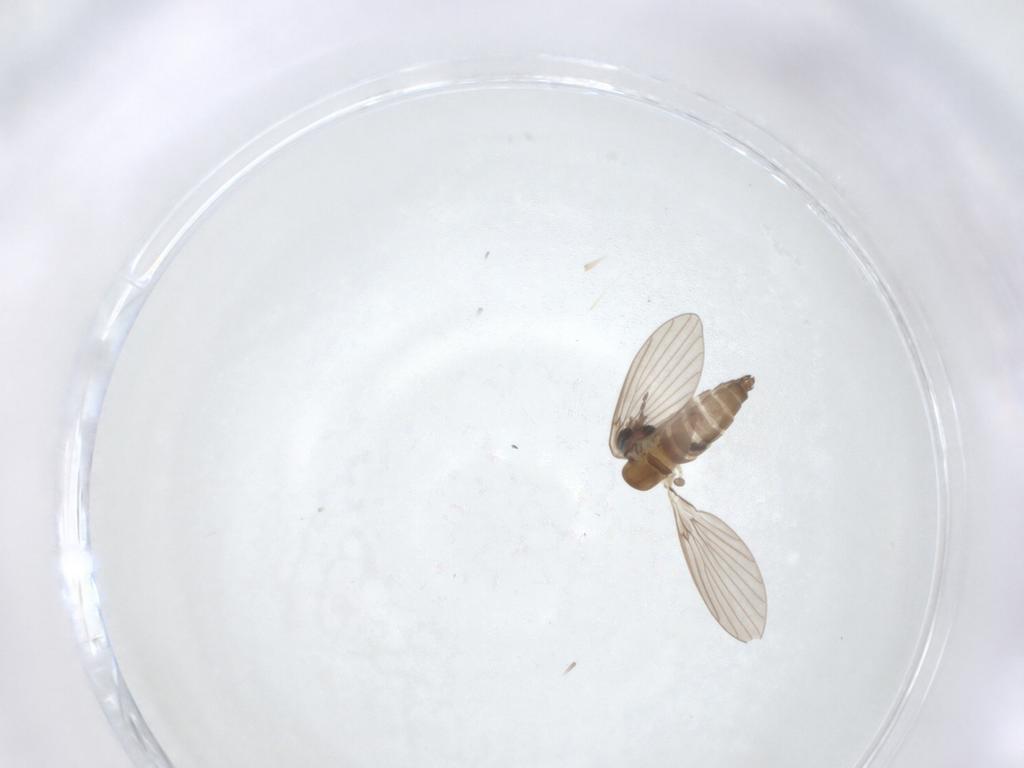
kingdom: Animalia
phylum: Arthropoda
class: Insecta
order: Diptera
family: Chironomidae
